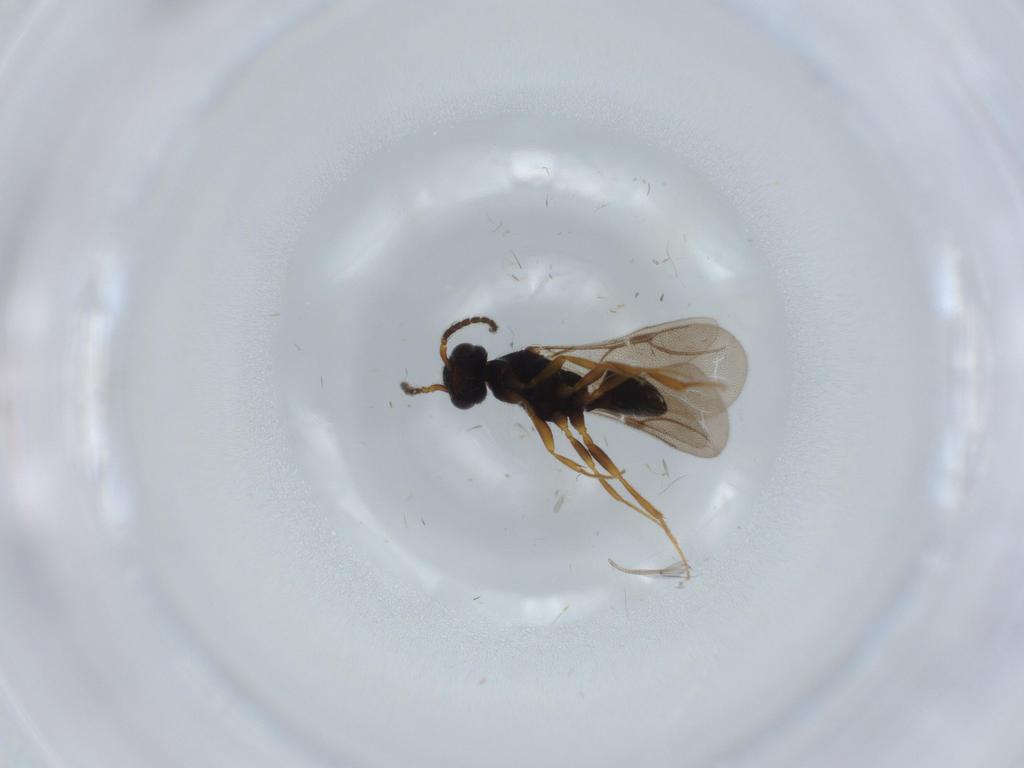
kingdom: Animalia
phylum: Arthropoda
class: Insecta
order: Hymenoptera
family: Bethylidae
